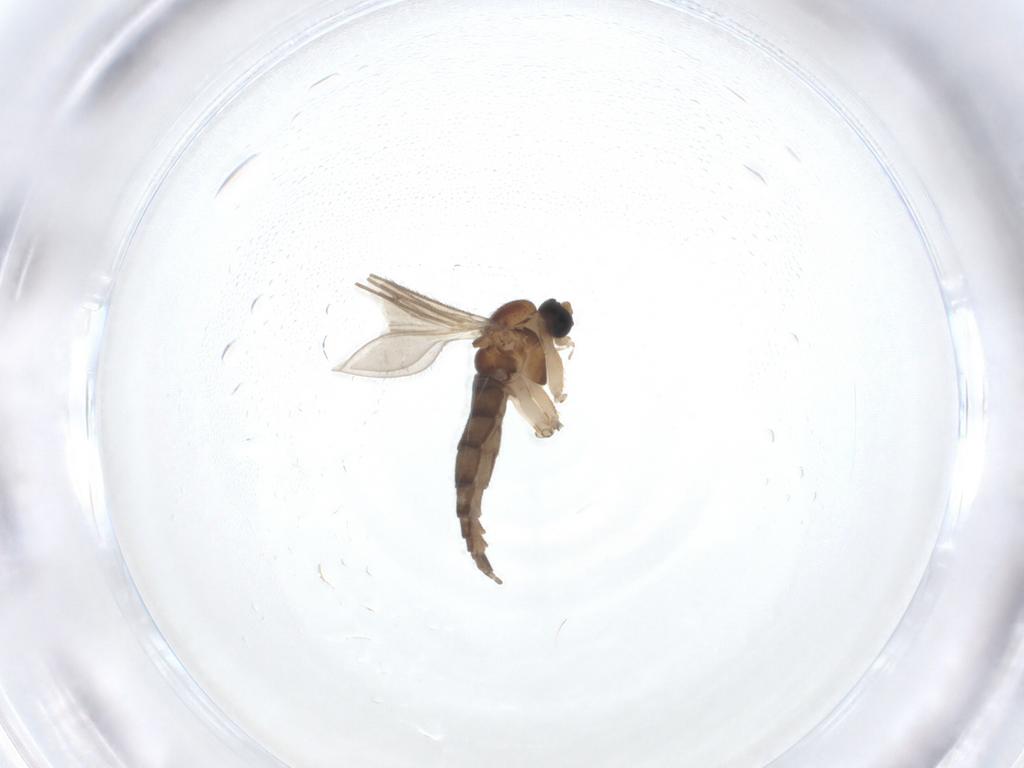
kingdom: Animalia
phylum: Arthropoda
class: Insecta
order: Diptera
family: Sciaridae
